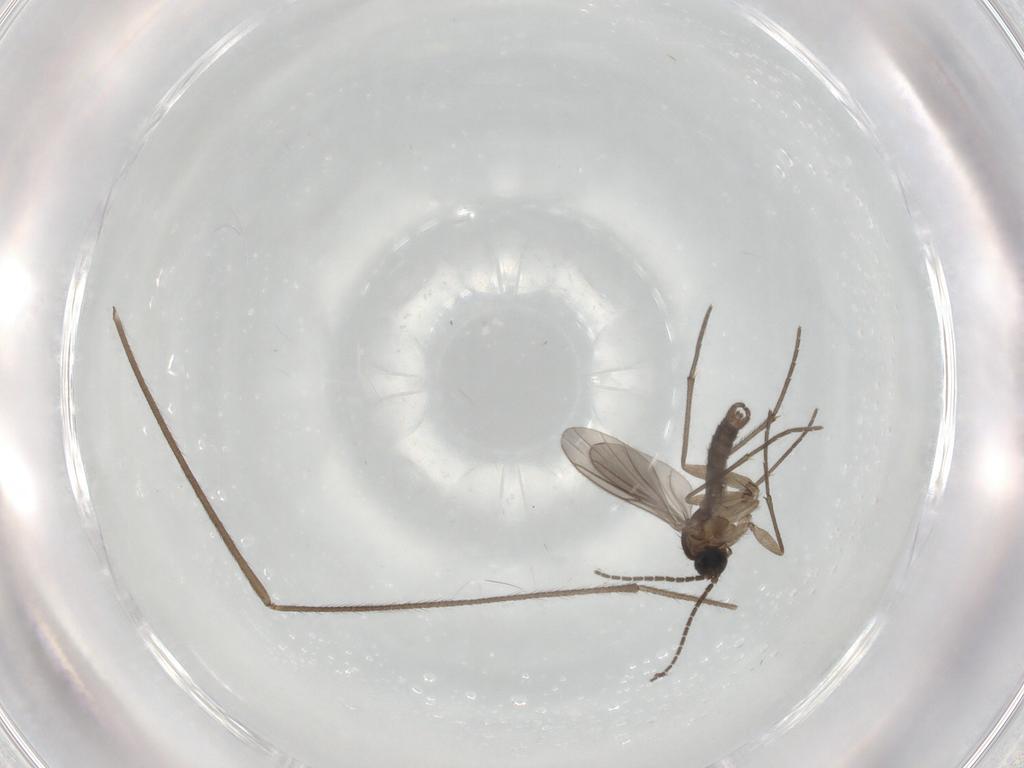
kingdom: Animalia
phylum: Arthropoda
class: Insecta
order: Diptera
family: Sciaridae
